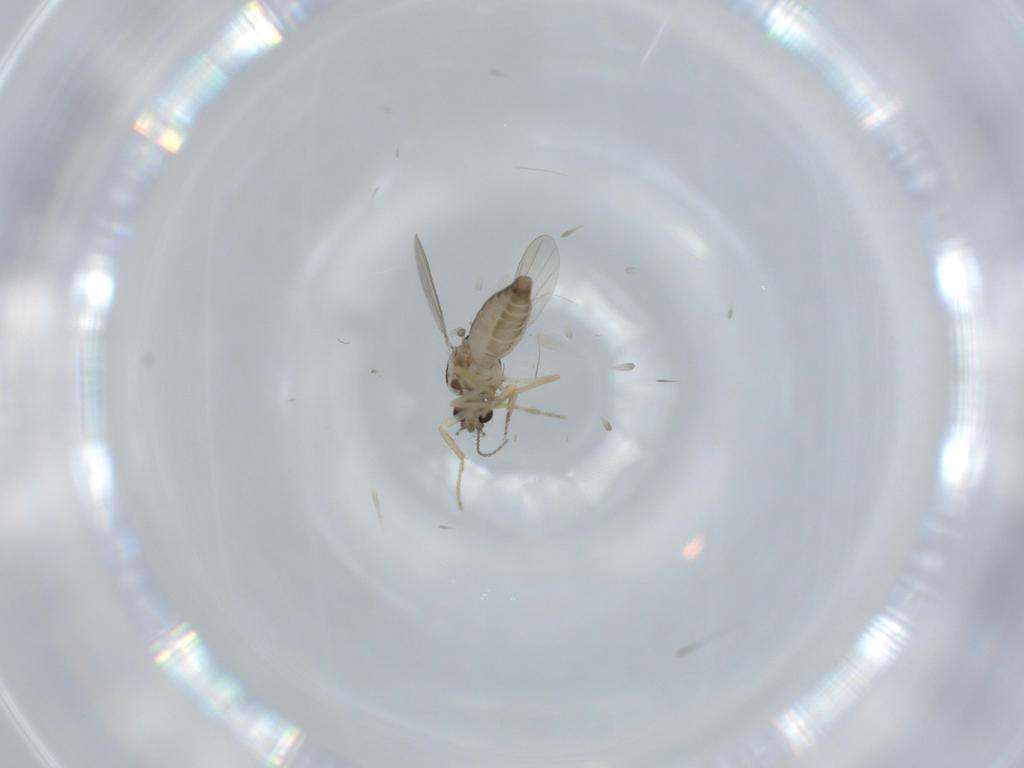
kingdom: Animalia
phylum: Arthropoda
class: Insecta
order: Diptera
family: Ceratopogonidae
